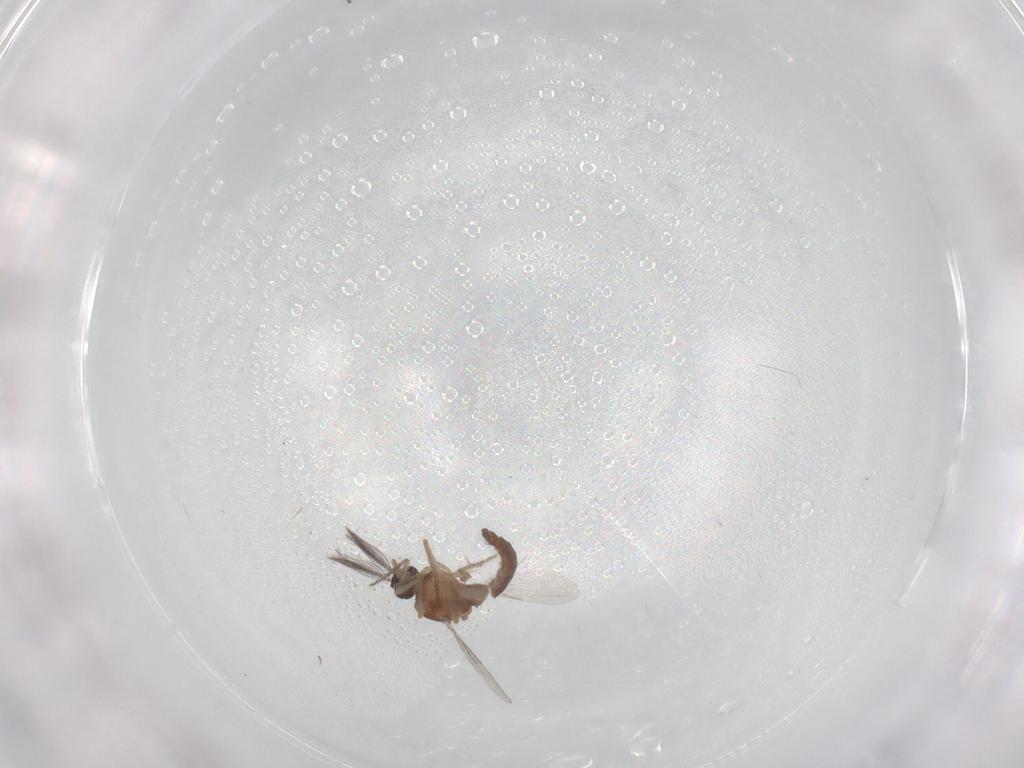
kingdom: Animalia
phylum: Arthropoda
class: Insecta
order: Diptera
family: Ceratopogonidae
